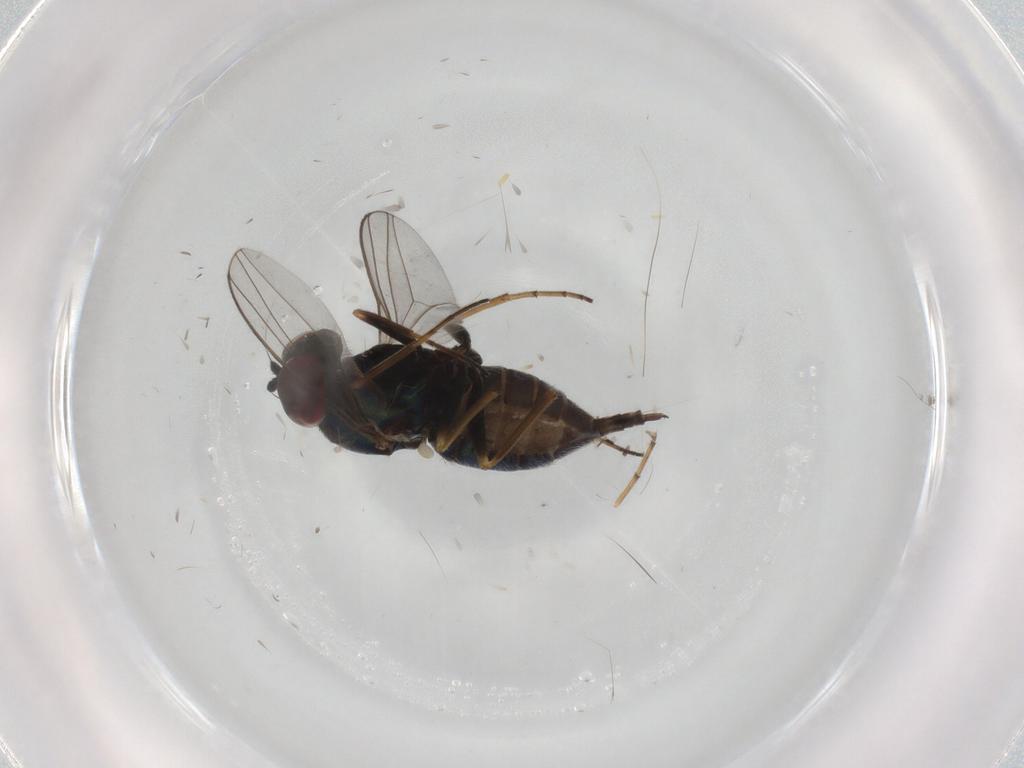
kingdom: Animalia
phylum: Arthropoda
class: Insecta
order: Diptera
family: Dolichopodidae
